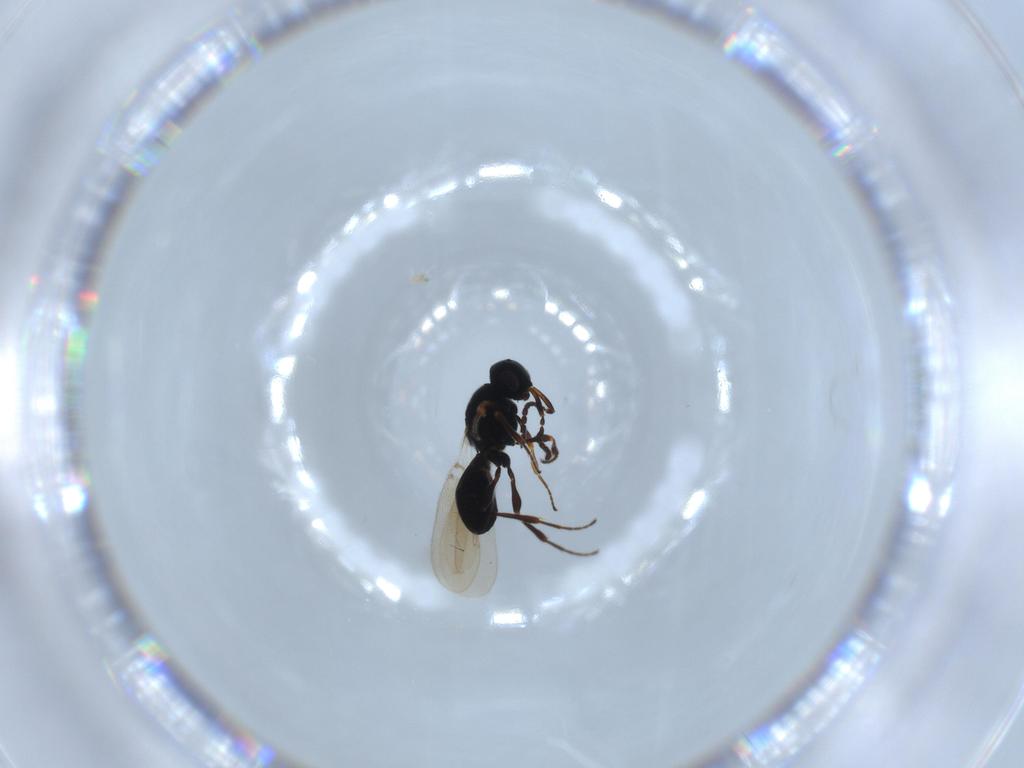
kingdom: Animalia
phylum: Arthropoda
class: Insecta
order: Hymenoptera
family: Platygastridae
